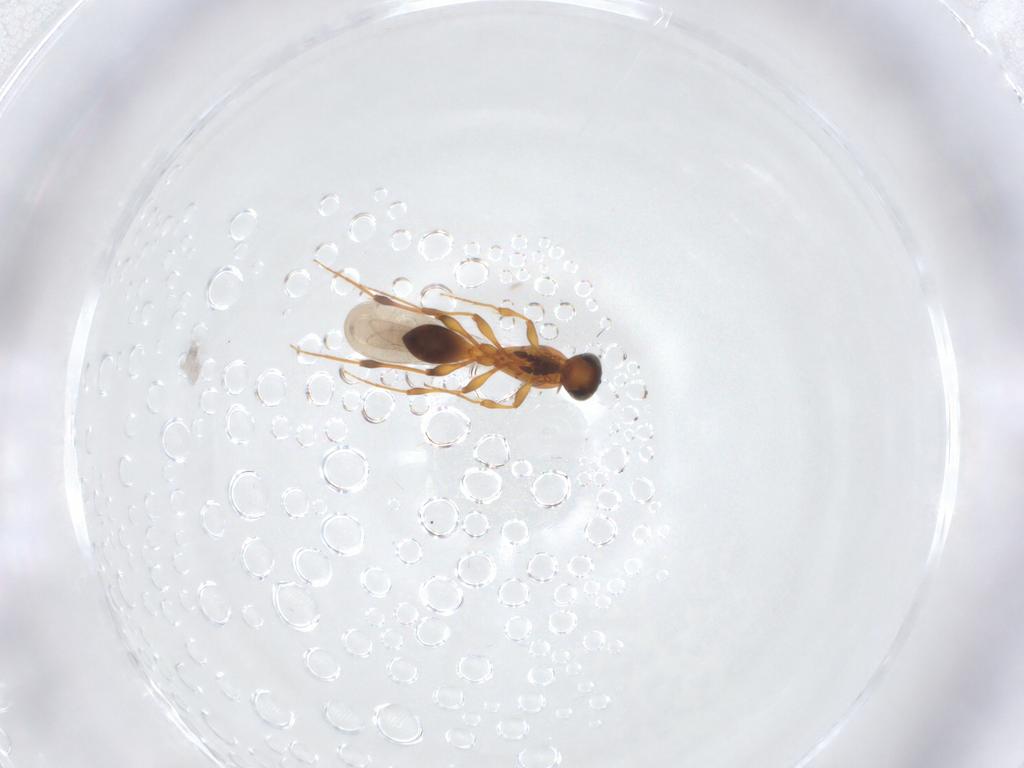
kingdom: Animalia
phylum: Arthropoda
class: Insecta
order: Hymenoptera
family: Platygastridae
